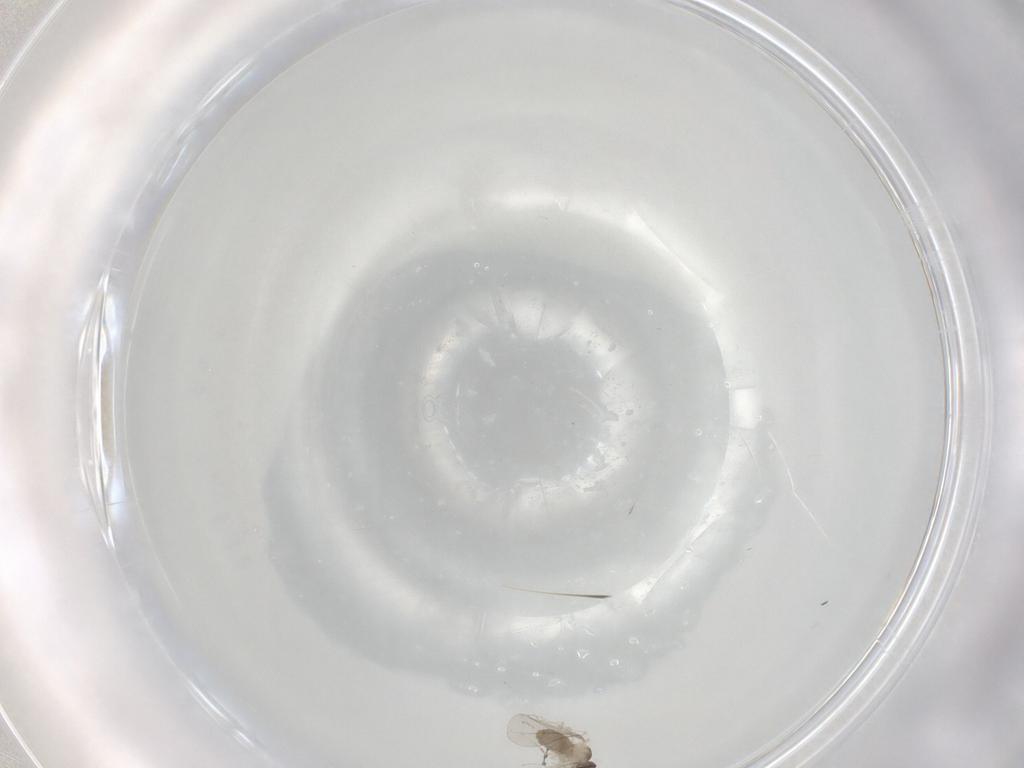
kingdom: Animalia
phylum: Arthropoda
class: Insecta
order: Diptera
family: Cecidomyiidae
